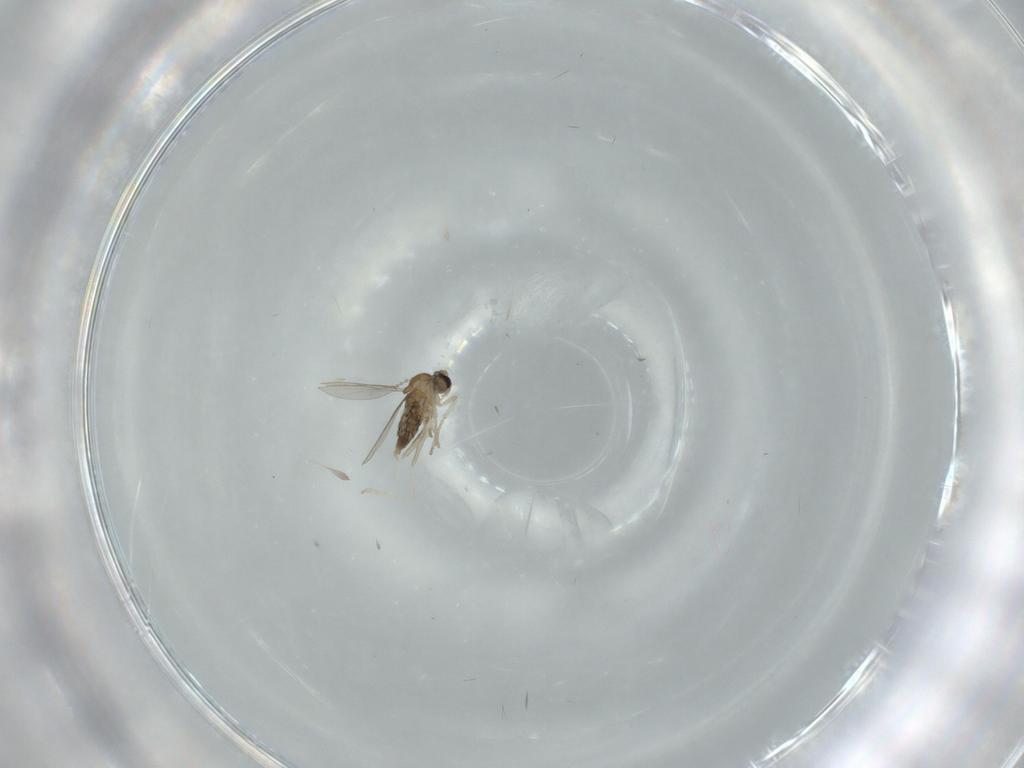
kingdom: Animalia
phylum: Arthropoda
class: Insecta
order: Diptera
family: Cecidomyiidae
